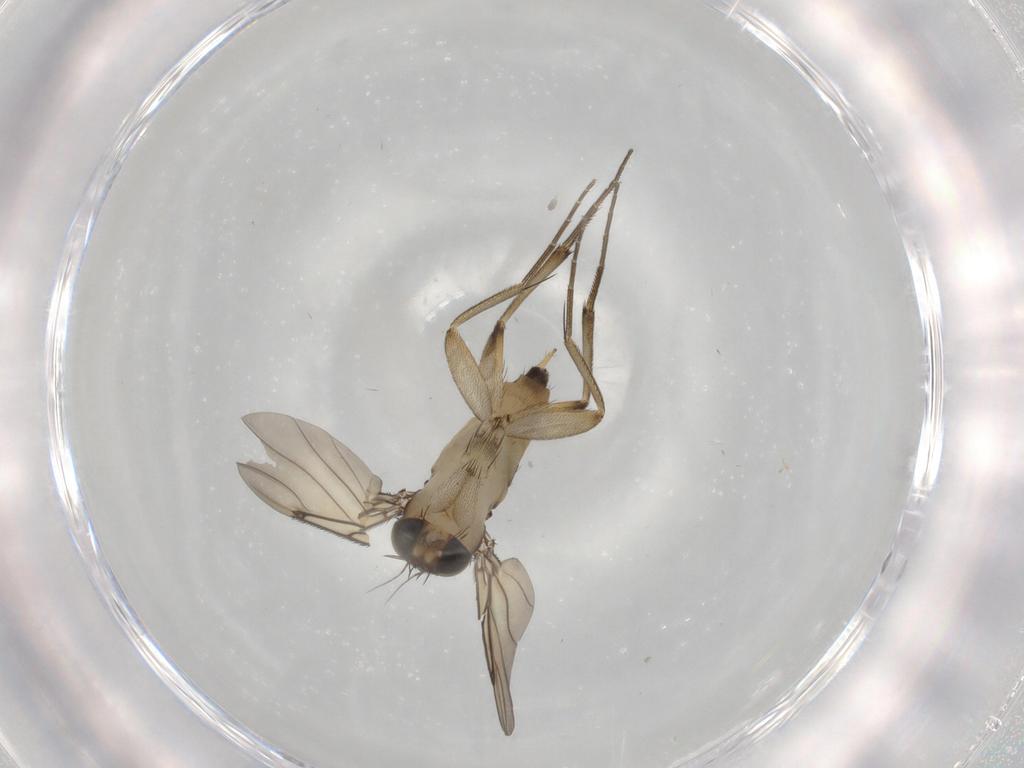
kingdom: Animalia
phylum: Arthropoda
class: Insecta
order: Diptera
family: Phoridae
